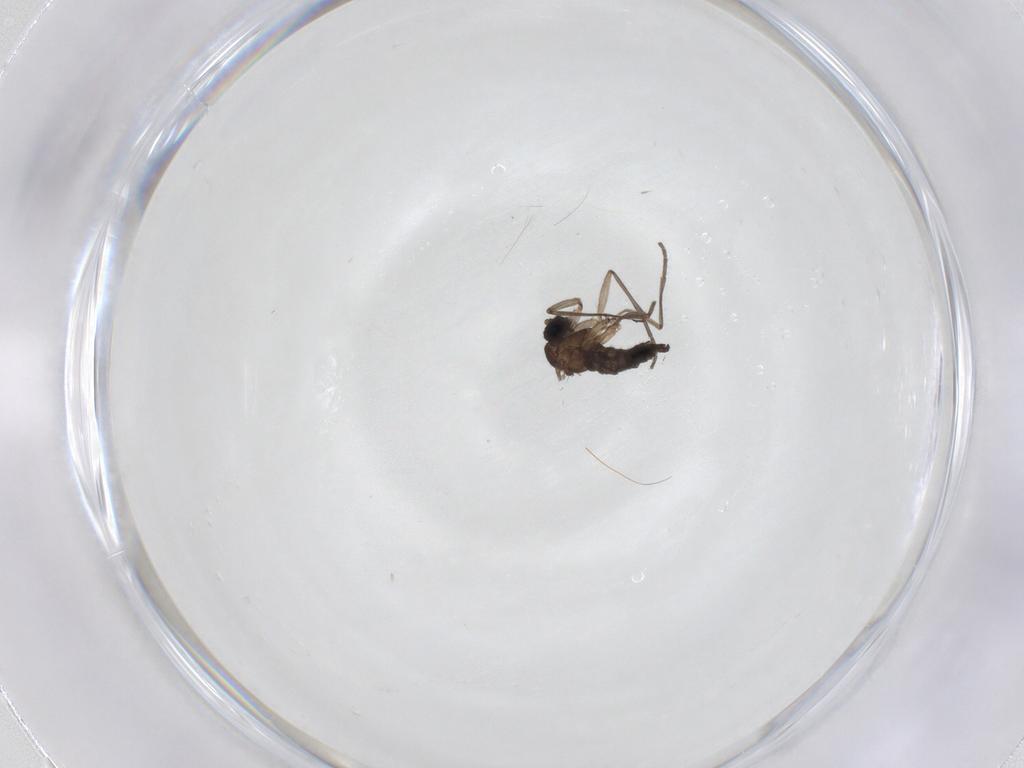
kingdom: Animalia
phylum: Arthropoda
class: Insecta
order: Diptera
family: Sciaridae
